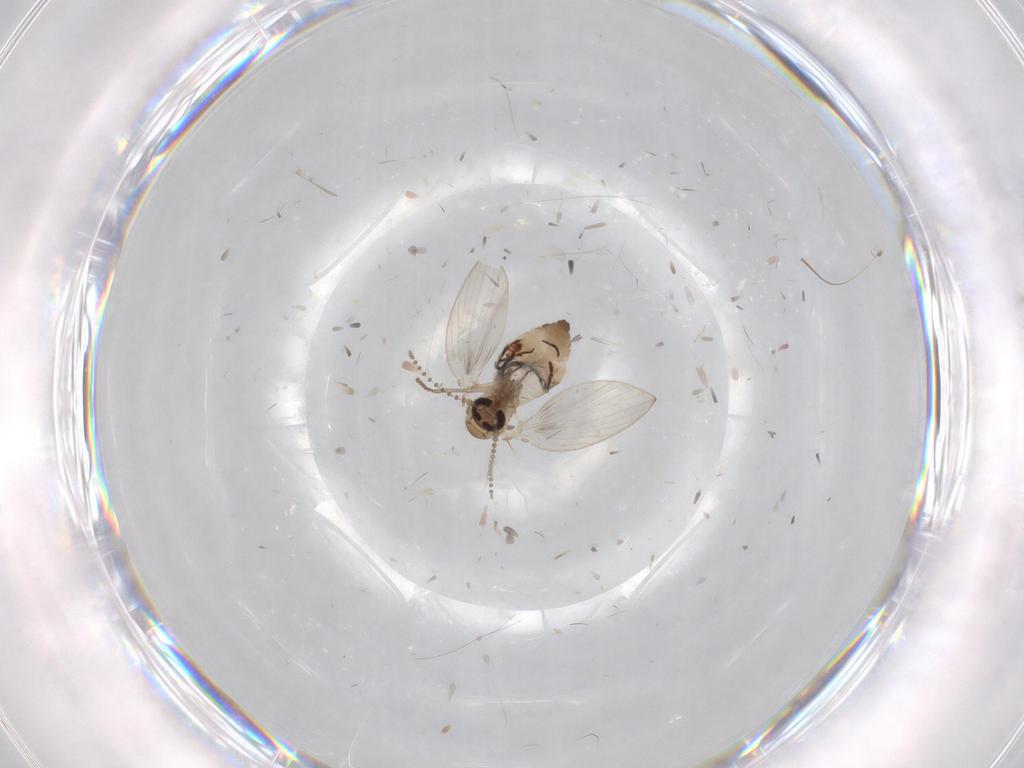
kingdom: Animalia
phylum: Arthropoda
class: Insecta
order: Diptera
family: Psychodidae
